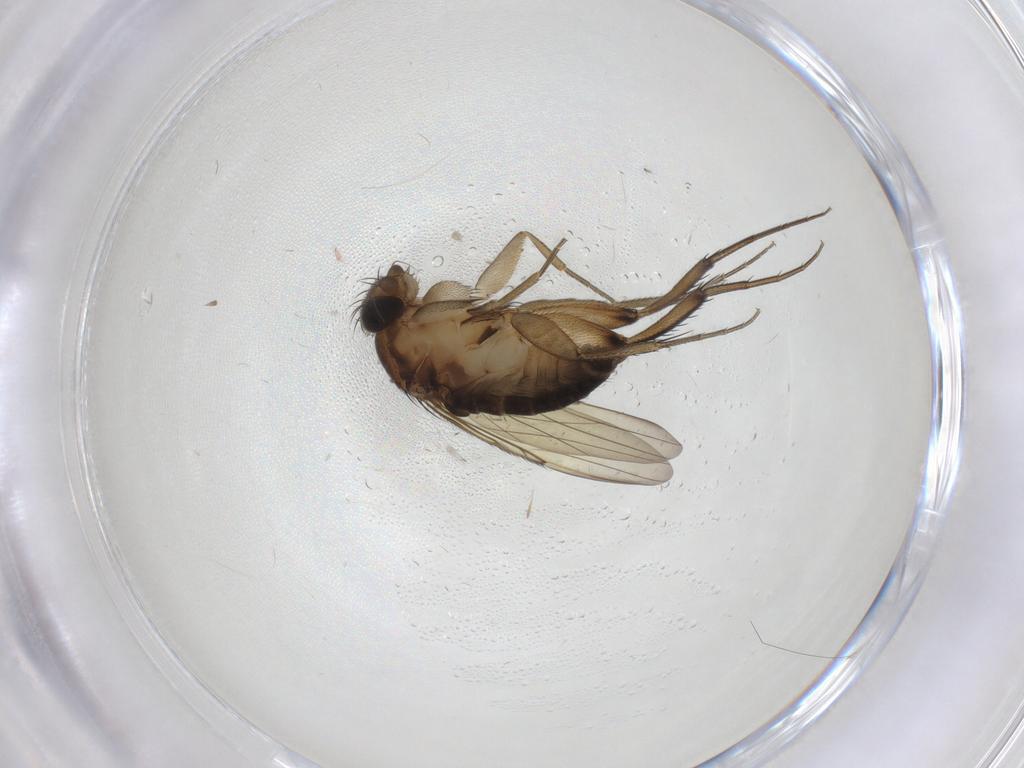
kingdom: Animalia
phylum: Arthropoda
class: Insecta
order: Diptera
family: Phoridae
